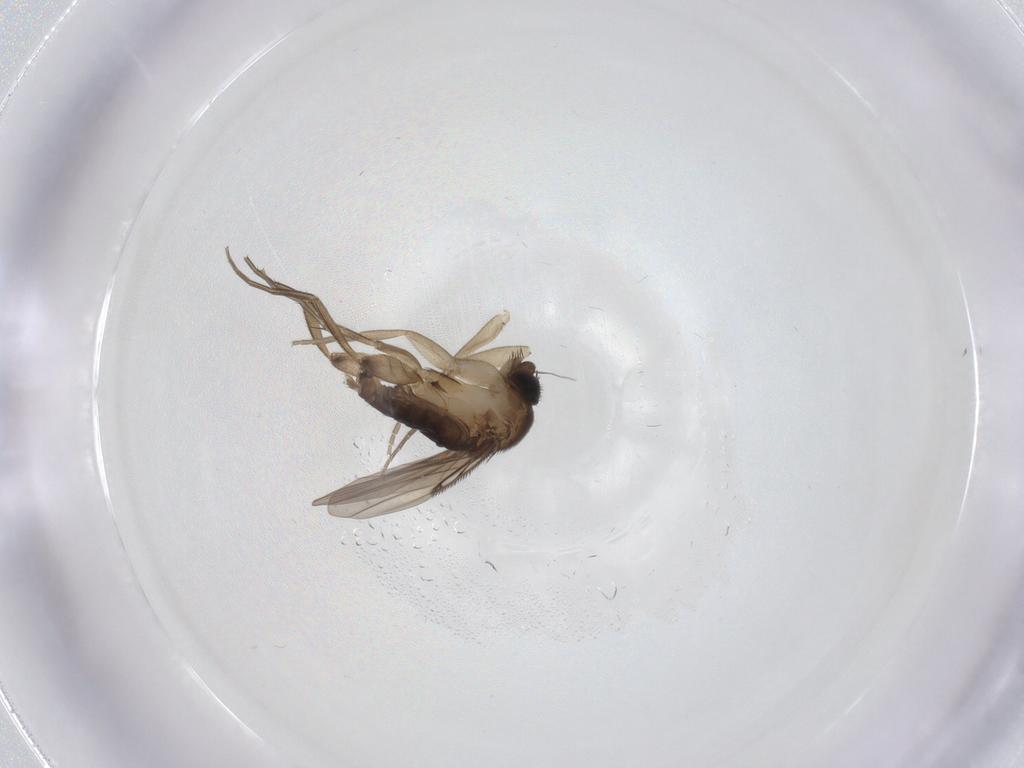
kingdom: Animalia
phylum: Arthropoda
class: Insecta
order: Diptera
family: Phoridae
